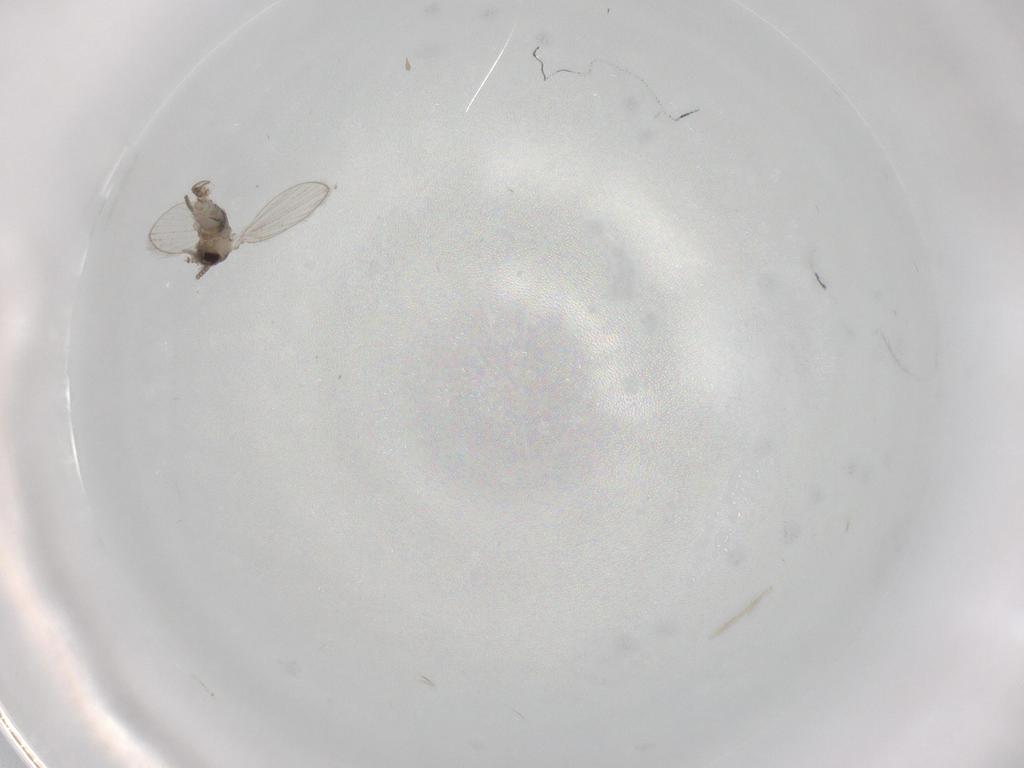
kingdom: Animalia
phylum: Arthropoda
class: Insecta
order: Diptera
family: Psychodidae
